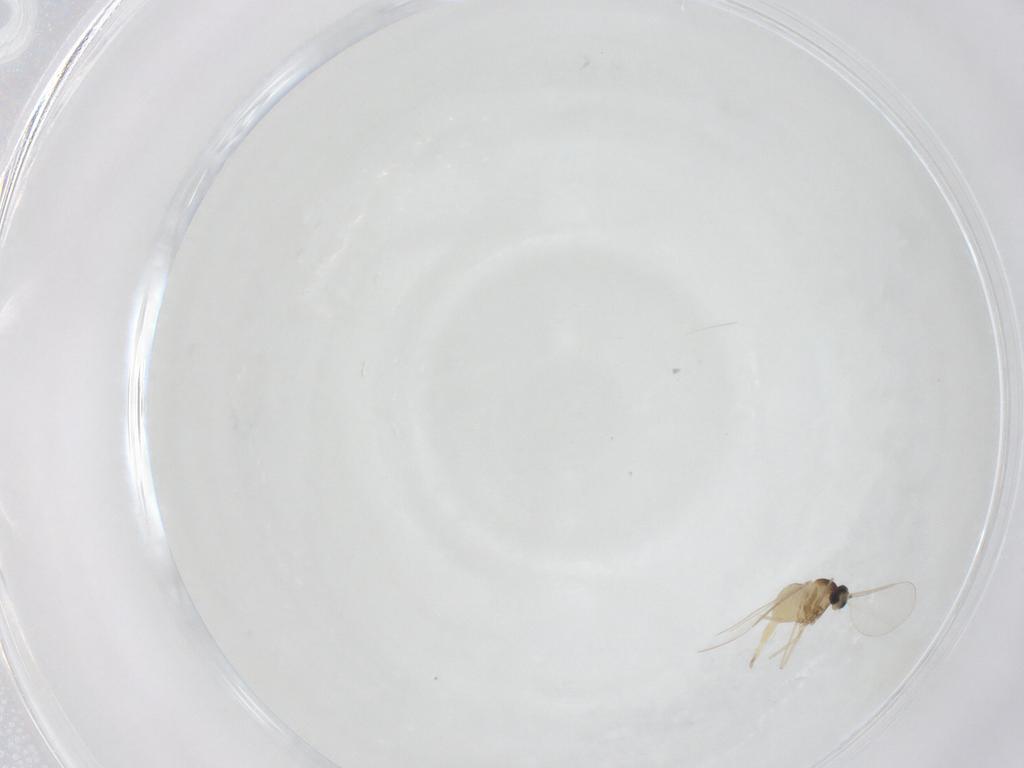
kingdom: Animalia
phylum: Arthropoda
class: Insecta
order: Diptera
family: Cecidomyiidae
